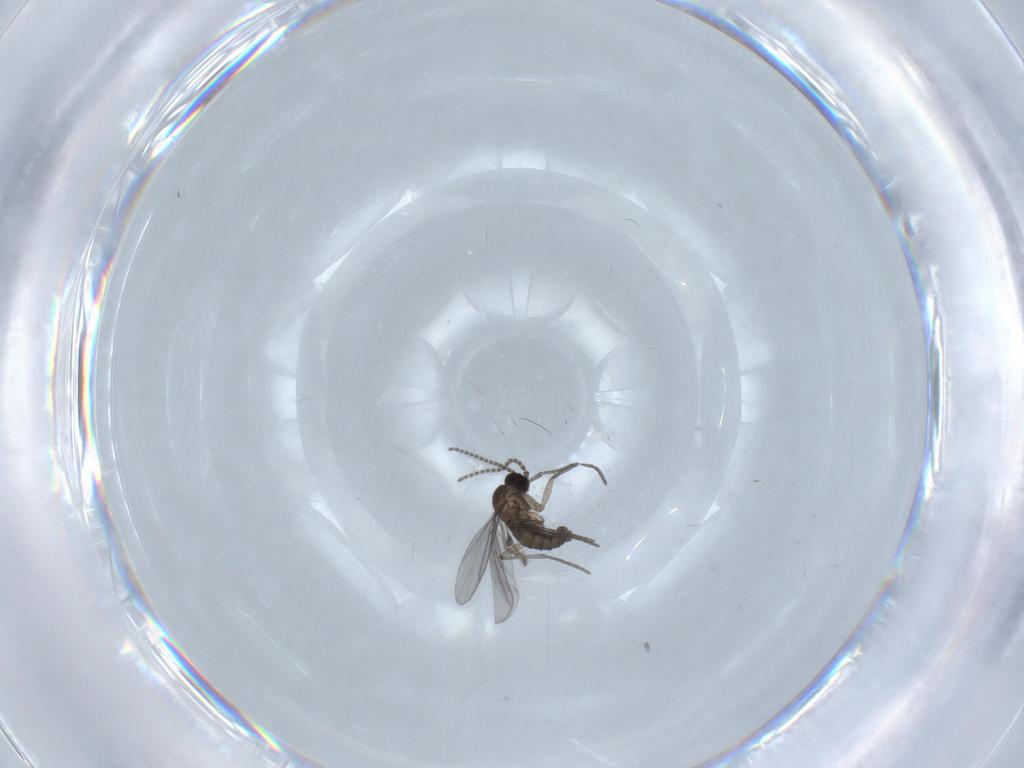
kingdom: Animalia
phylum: Arthropoda
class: Insecta
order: Diptera
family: Chironomidae
